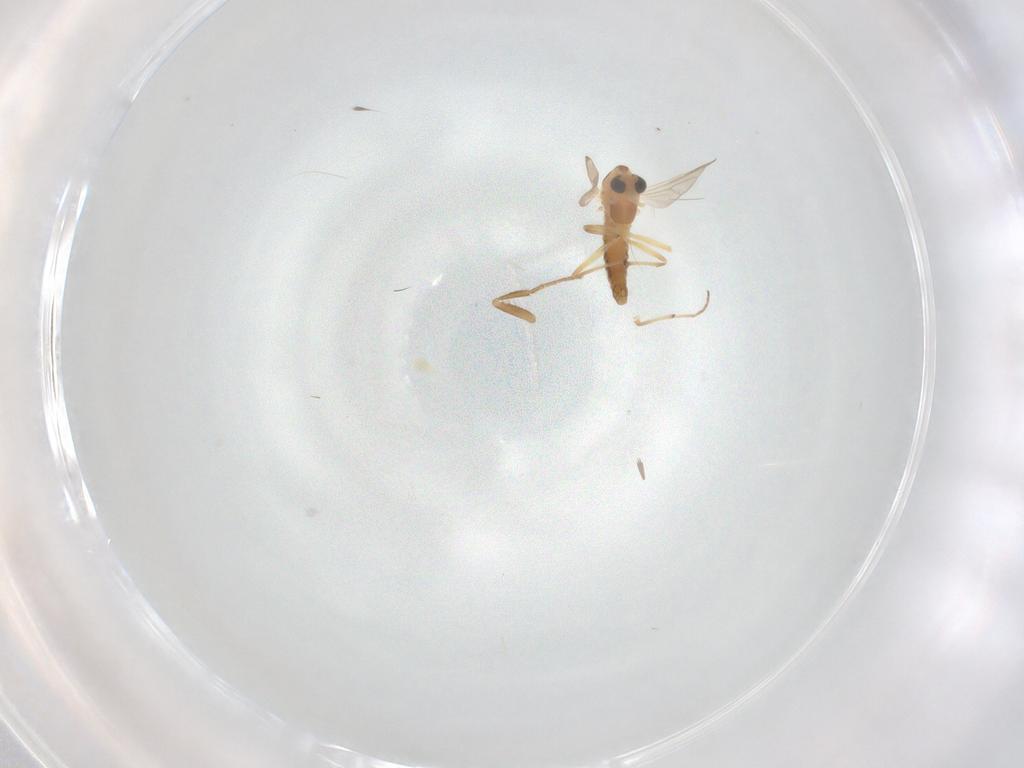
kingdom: Animalia
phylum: Arthropoda
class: Insecta
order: Diptera
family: Chironomidae
